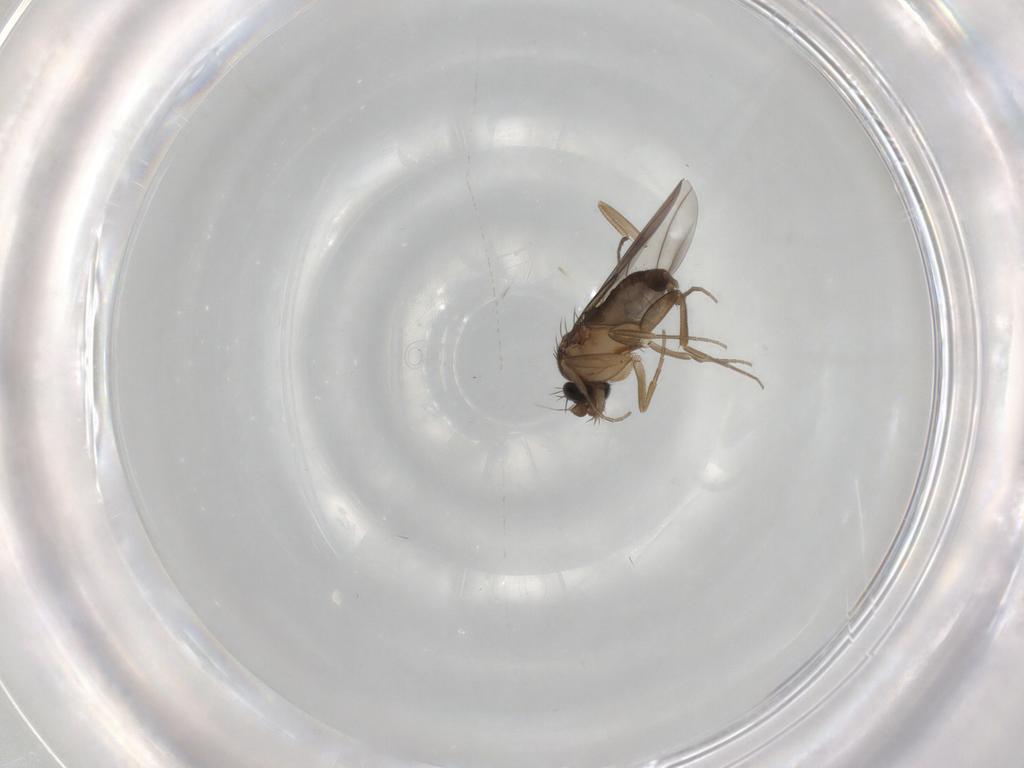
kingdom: Animalia
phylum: Arthropoda
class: Insecta
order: Diptera
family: Phoridae
